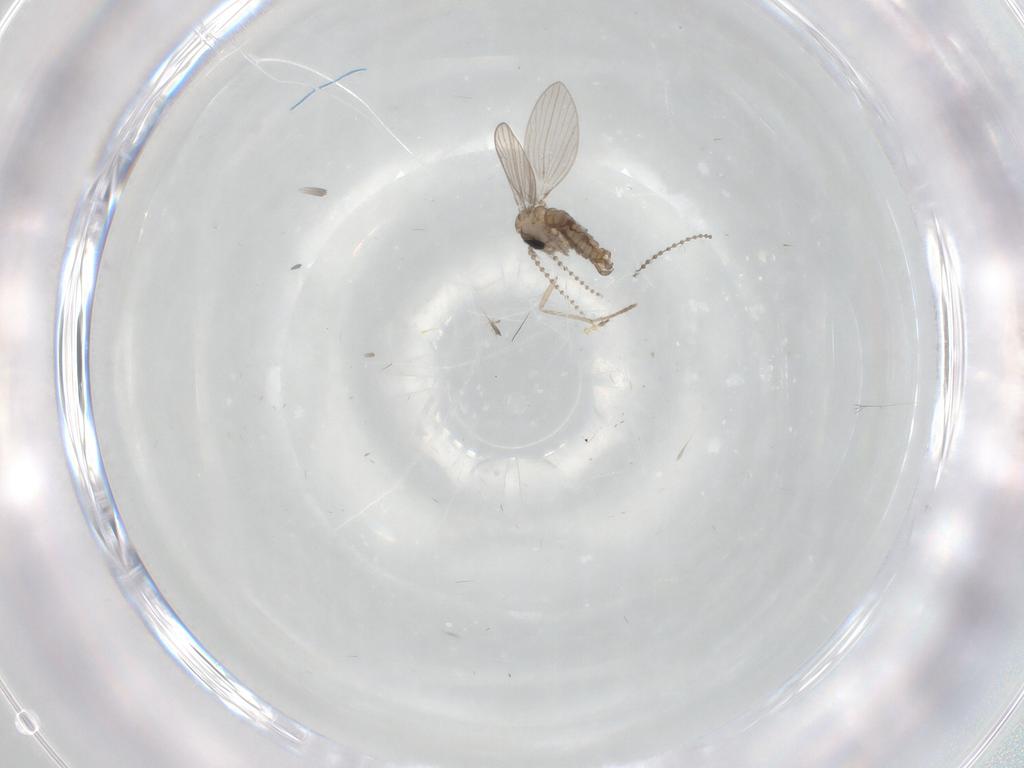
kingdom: Animalia
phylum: Arthropoda
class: Insecta
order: Diptera
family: Psychodidae
